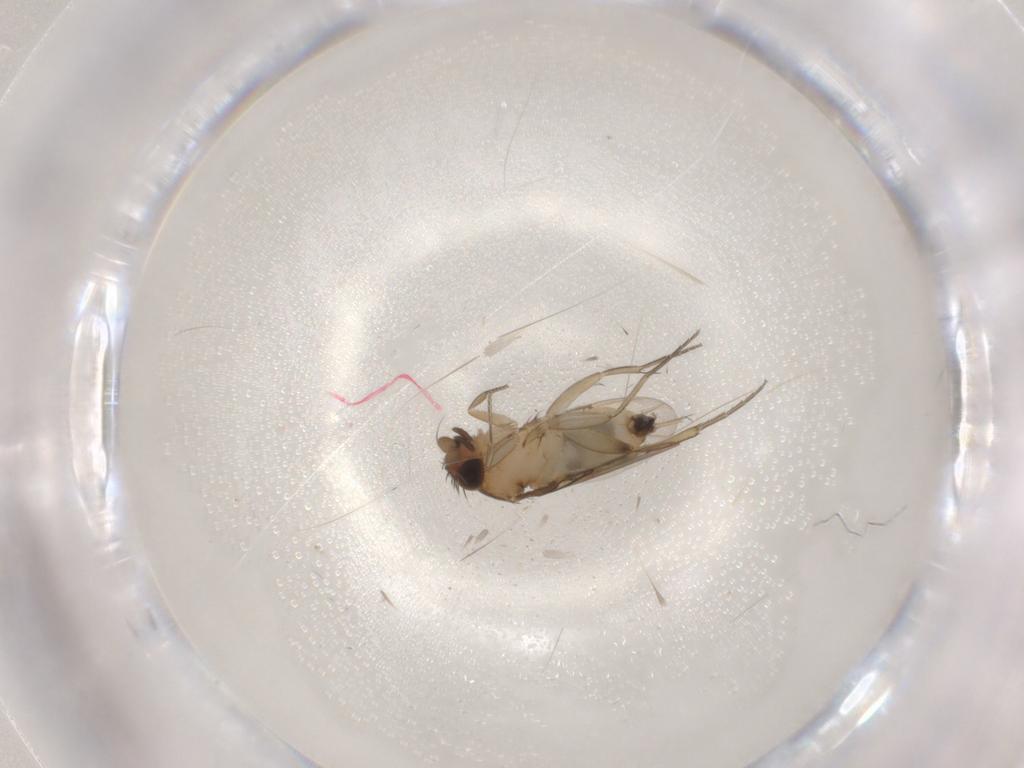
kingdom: Animalia
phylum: Arthropoda
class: Insecta
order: Diptera
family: Phoridae
